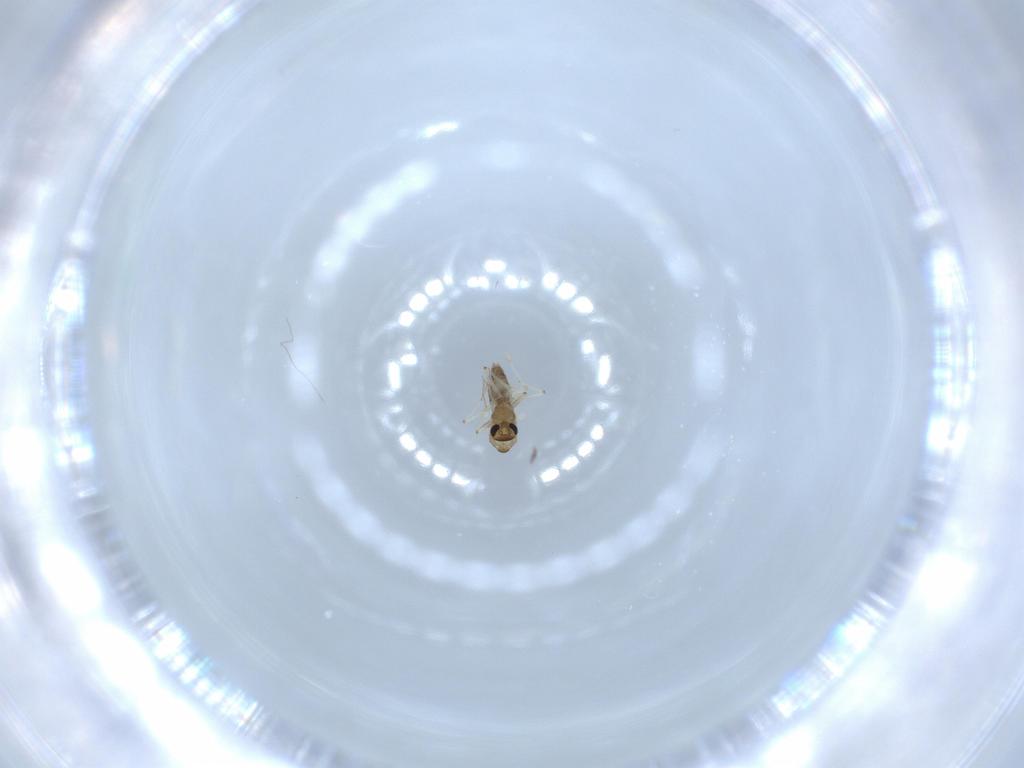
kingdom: Animalia
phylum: Arthropoda
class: Insecta
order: Diptera
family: Chironomidae
